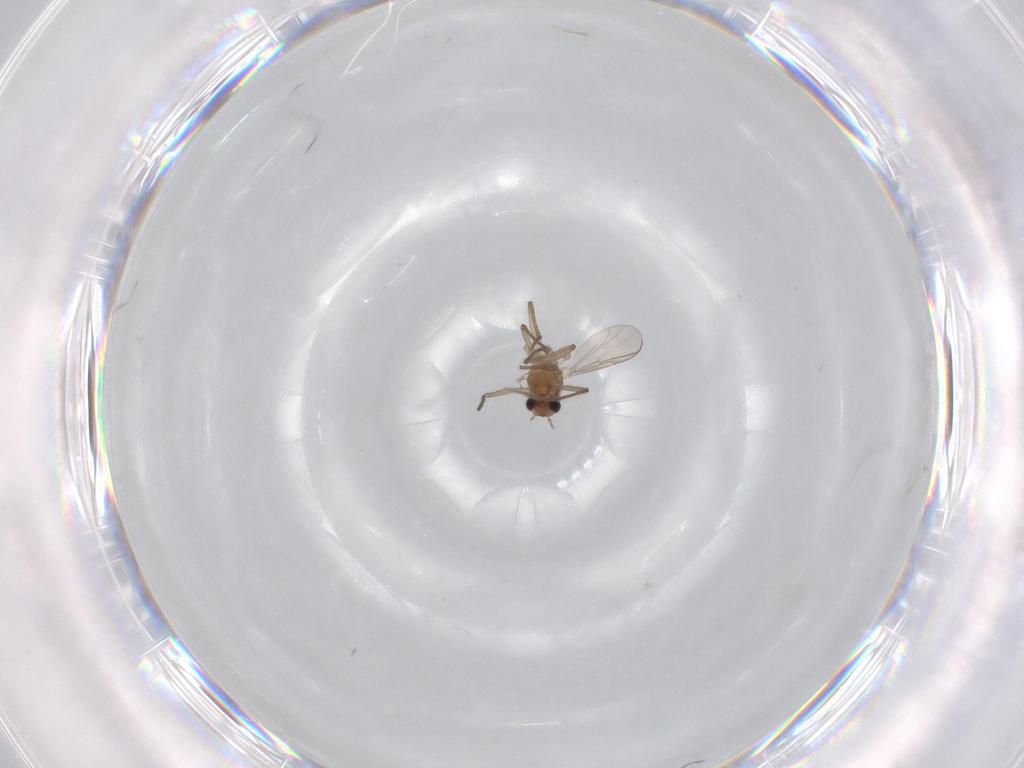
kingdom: Animalia
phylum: Arthropoda
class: Insecta
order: Diptera
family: Chironomidae
